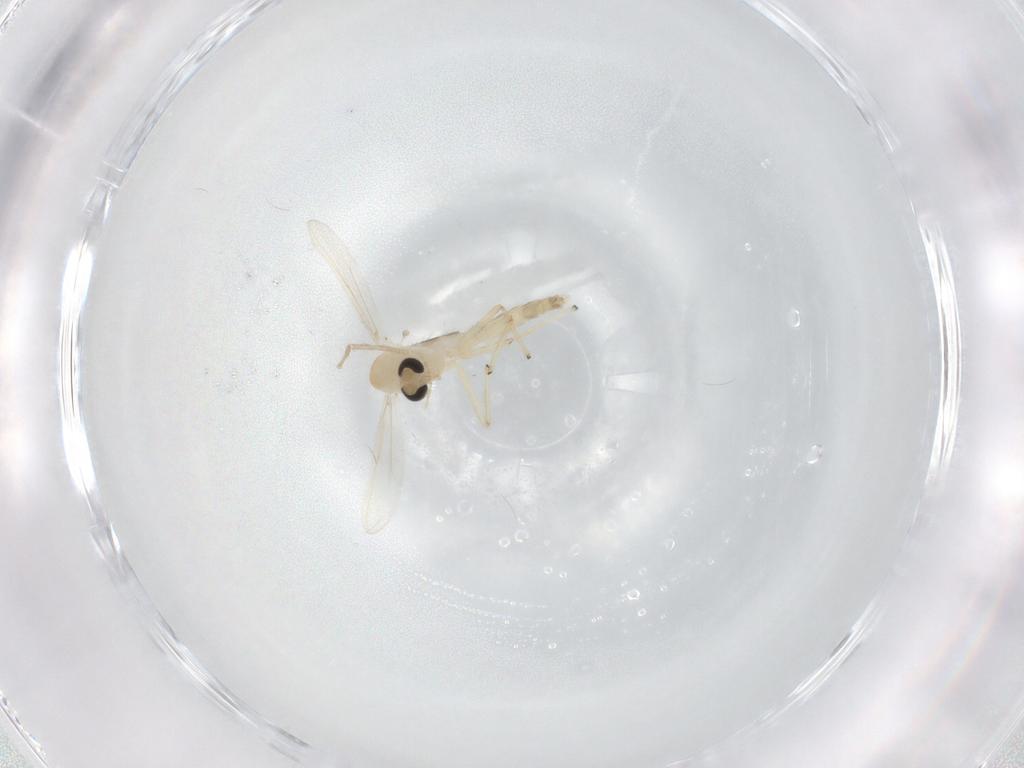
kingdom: Animalia
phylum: Arthropoda
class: Insecta
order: Diptera
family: Chironomidae
